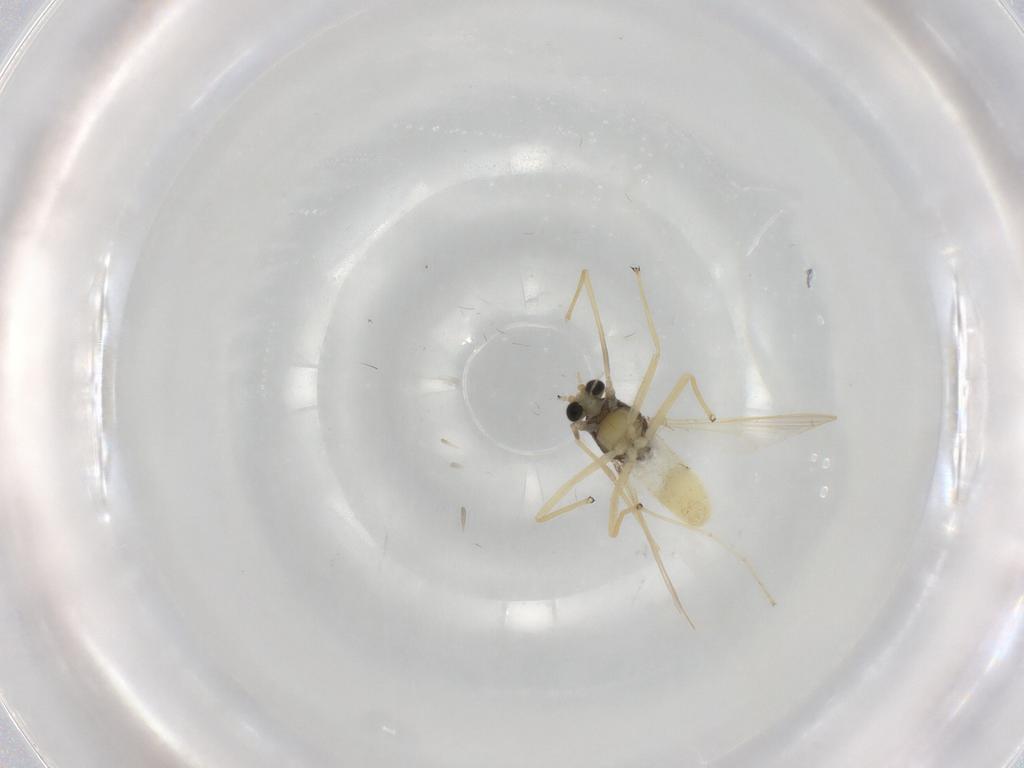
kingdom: Animalia
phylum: Arthropoda
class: Insecta
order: Diptera
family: Chironomidae
